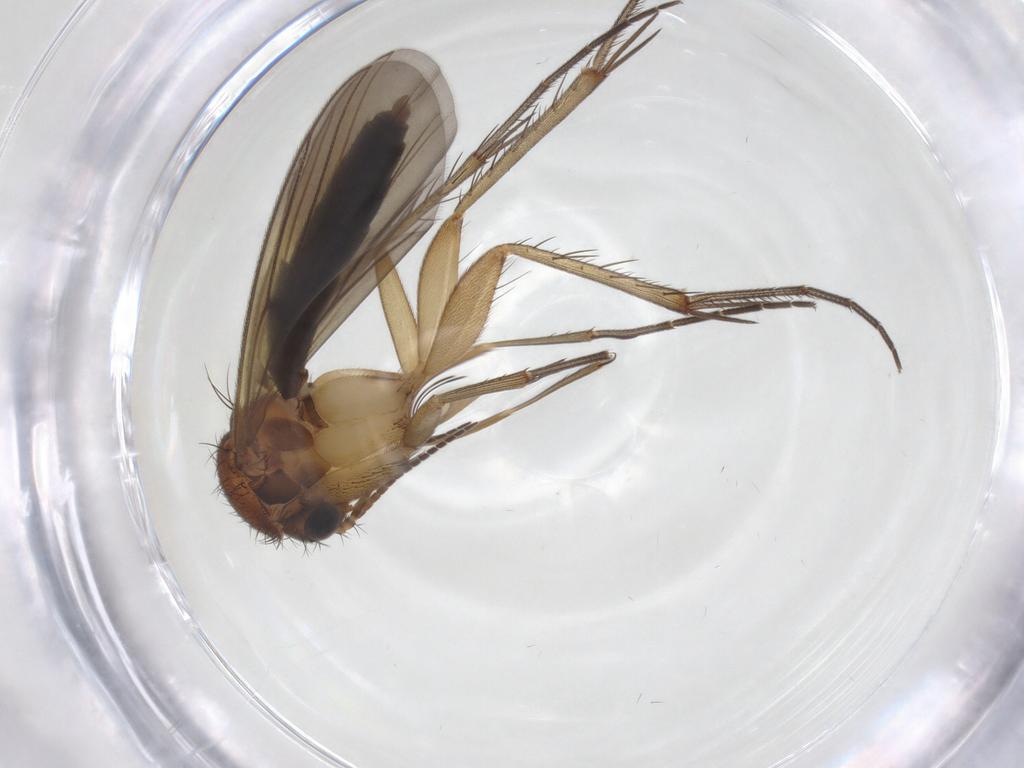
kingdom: Animalia
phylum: Arthropoda
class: Insecta
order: Diptera
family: Mycetophilidae
